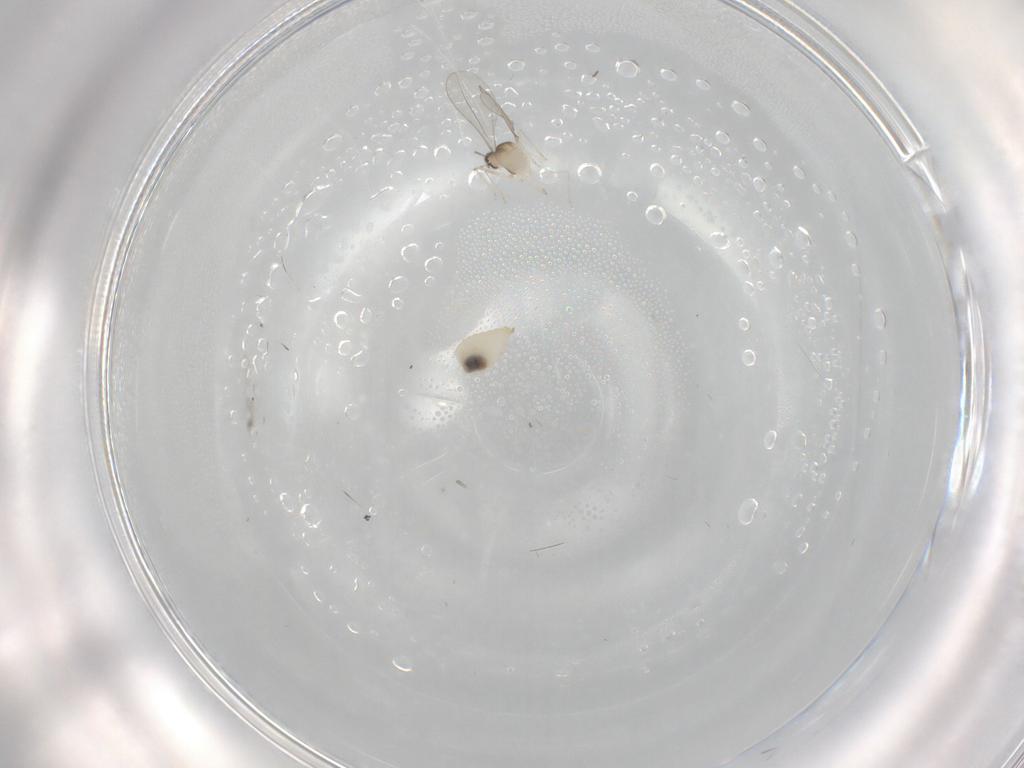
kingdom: Animalia
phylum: Arthropoda
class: Insecta
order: Diptera
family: Cecidomyiidae
